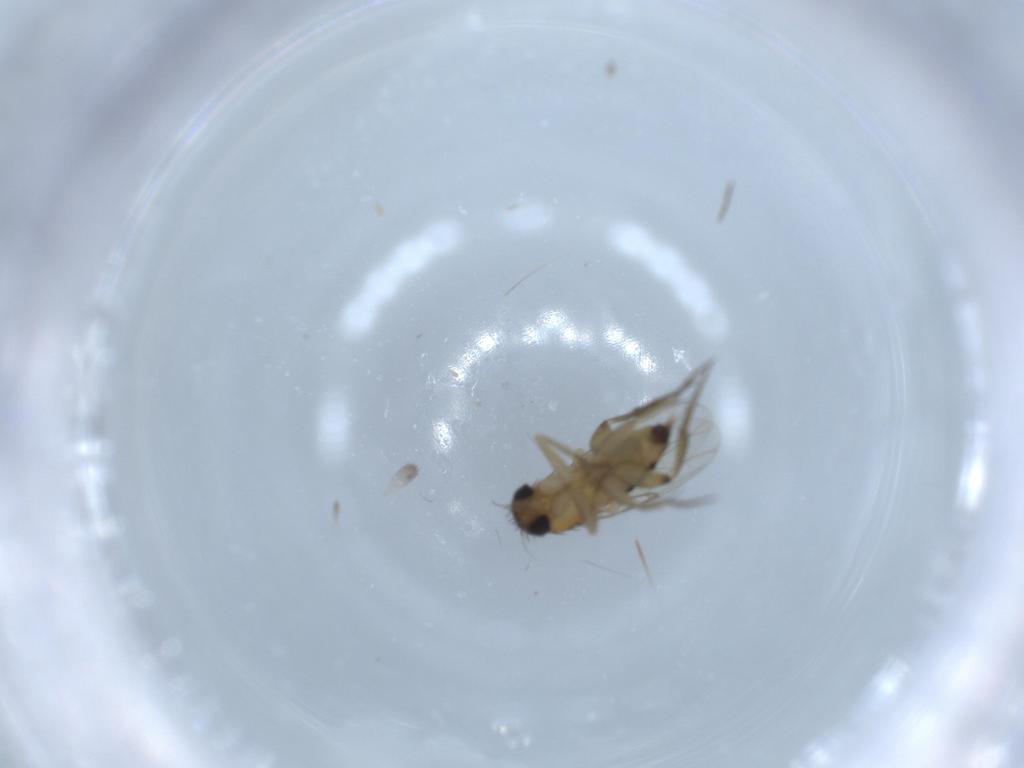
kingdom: Animalia
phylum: Arthropoda
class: Insecta
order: Diptera
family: Phoridae
